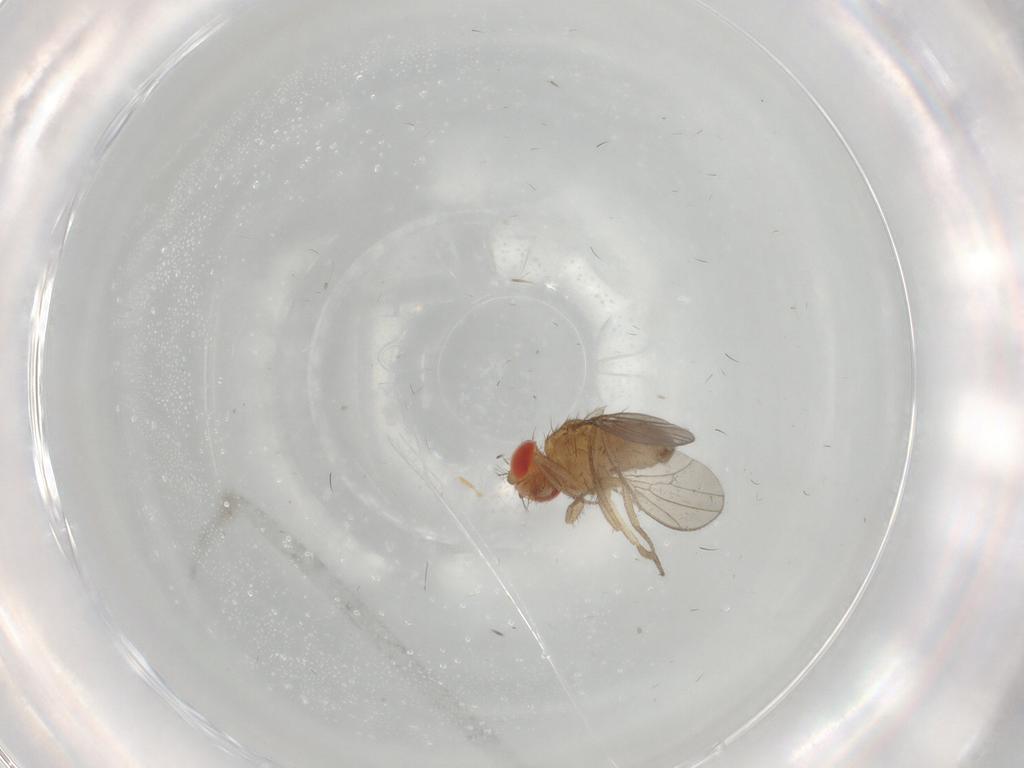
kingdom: Animalia
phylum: Arthropoda
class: Insecta
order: Diptera
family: Drosophilidae
